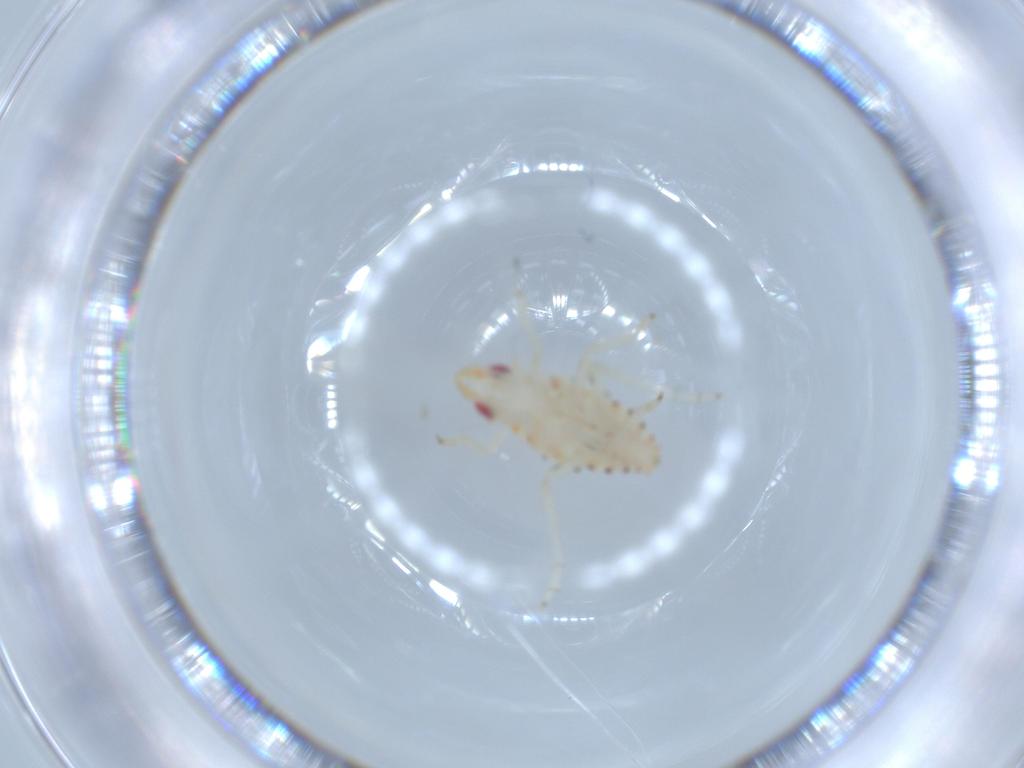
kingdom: Animalia
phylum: Arthropoda
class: Insecta
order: Hemiptera
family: Tropiduchidae
